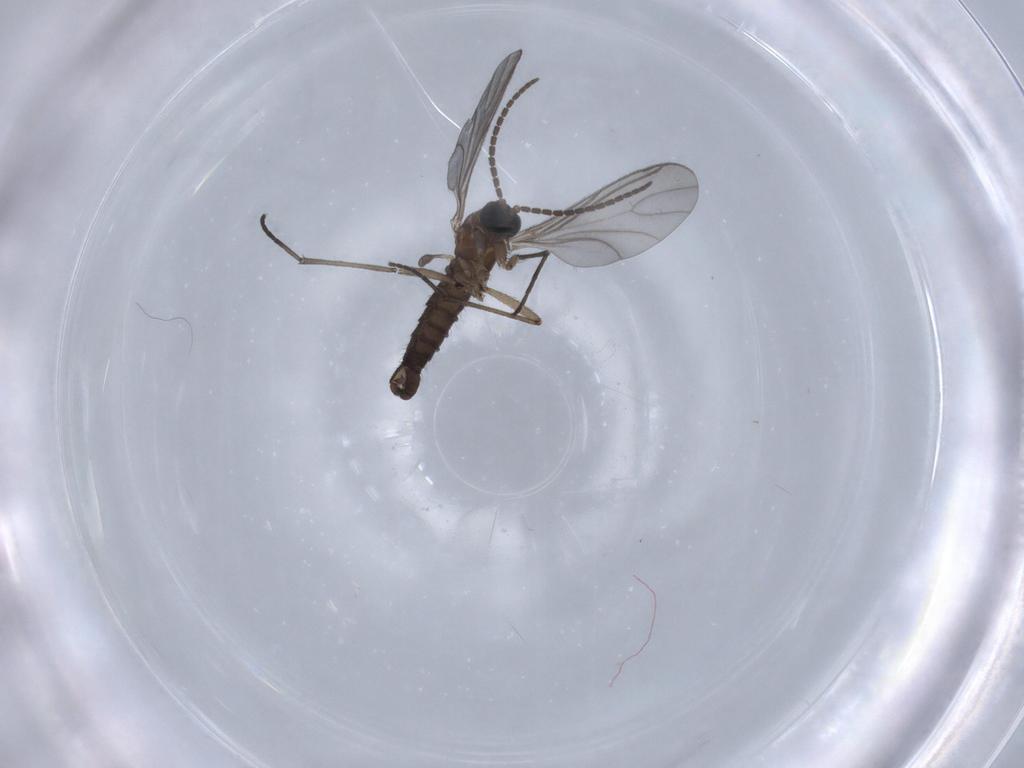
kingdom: Animalia
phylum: Arthropoda
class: Insecta
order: Diptera
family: Sciaridae
